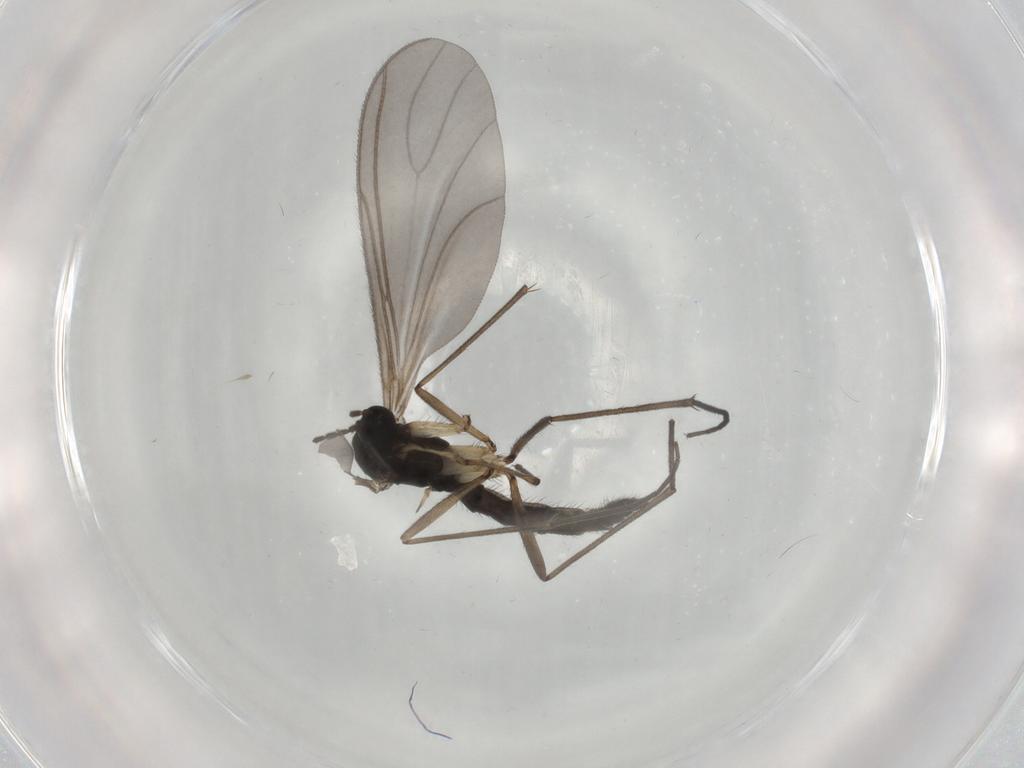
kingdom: Animalia
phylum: Arthropoda
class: Insecta
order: Diptera
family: Sciaridae
